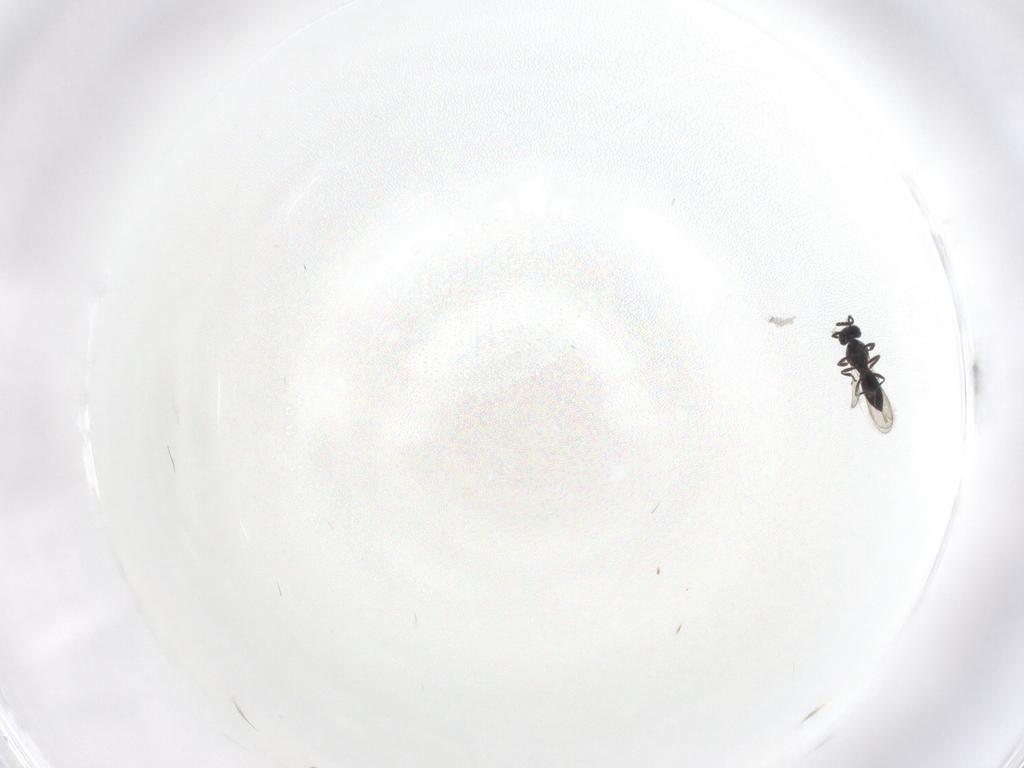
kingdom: Animalia
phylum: Arthropoda
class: Insecta
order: Hymenoptera
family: Scelionidae
